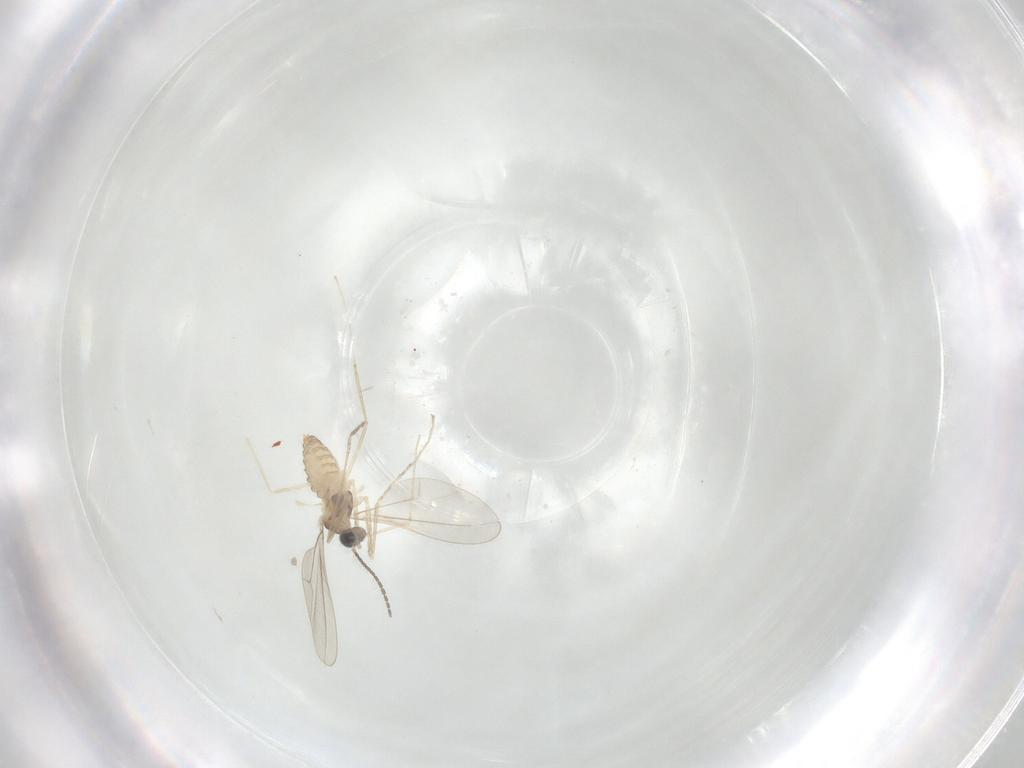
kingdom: Animalia
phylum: Arthropoda
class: Insecta
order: Diptera
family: Cecidomyiidae
